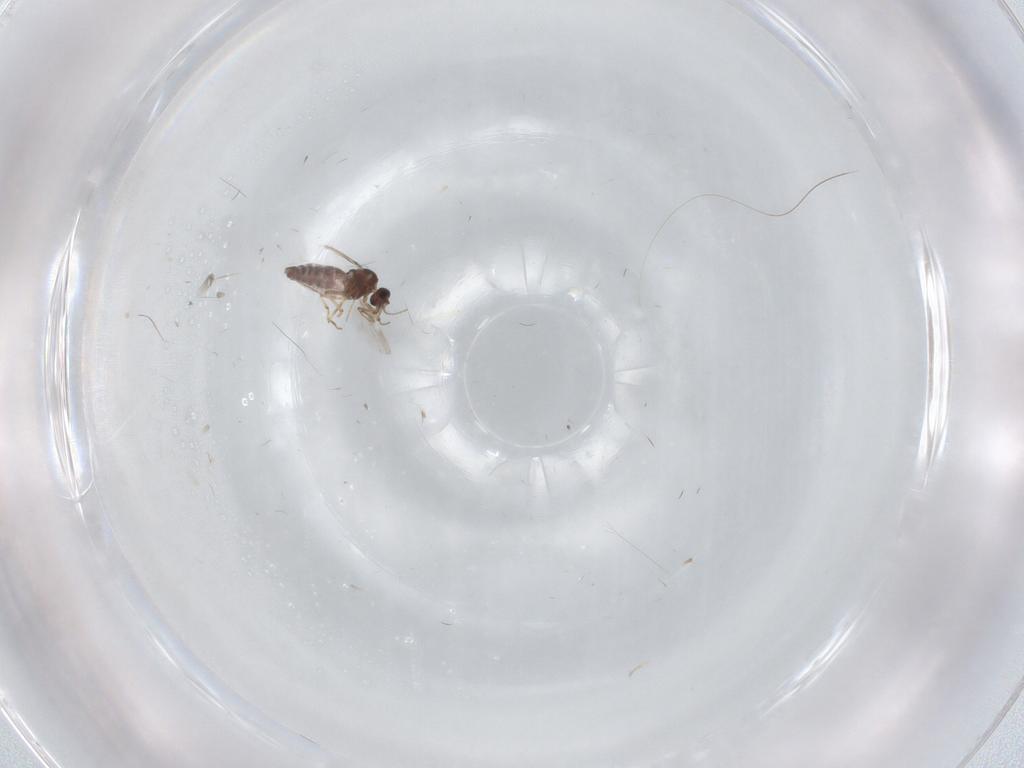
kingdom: Animalia
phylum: Arthropoda
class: Insecta
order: Diptera
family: Phoridae
